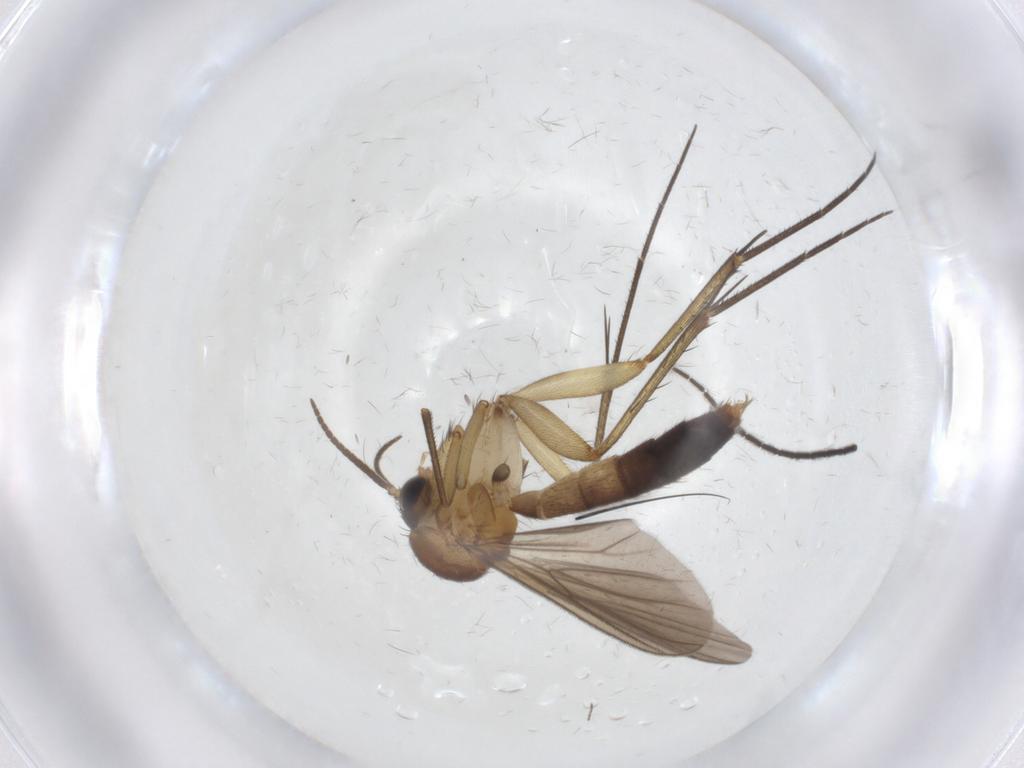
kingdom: Animalia
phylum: Arthropoda
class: Insecta
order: Diptera
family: Mycetophilidae
